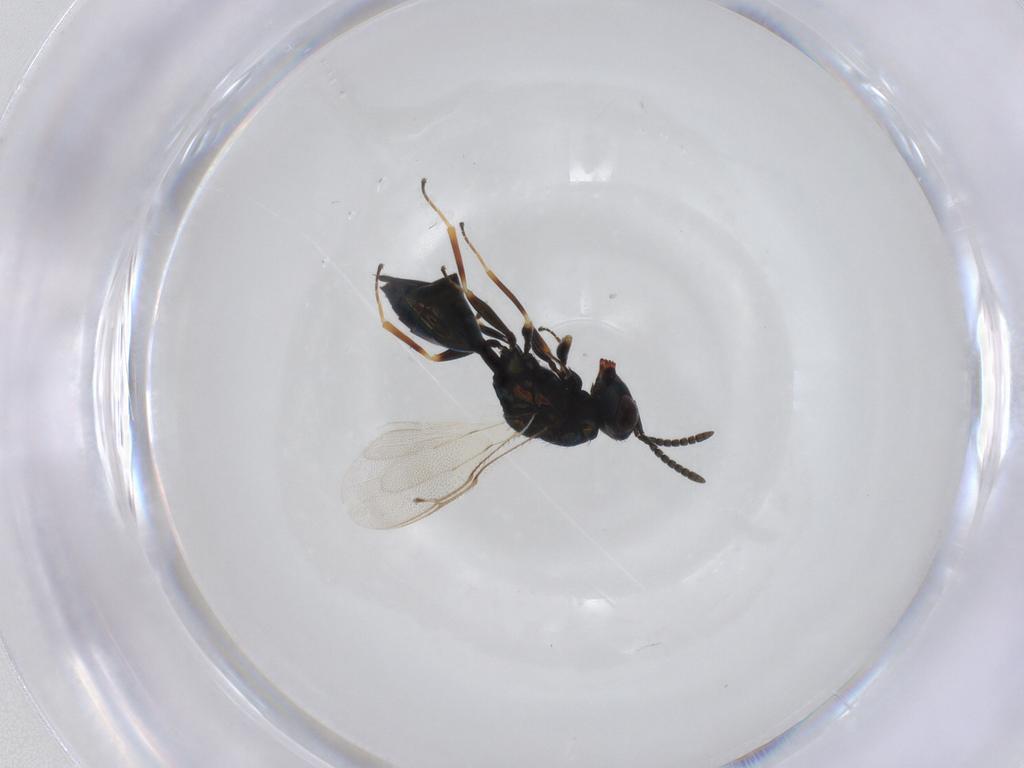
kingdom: Animalia
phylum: Arthropoda
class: Insecta
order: Hymenoptera
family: Pteromalidae
